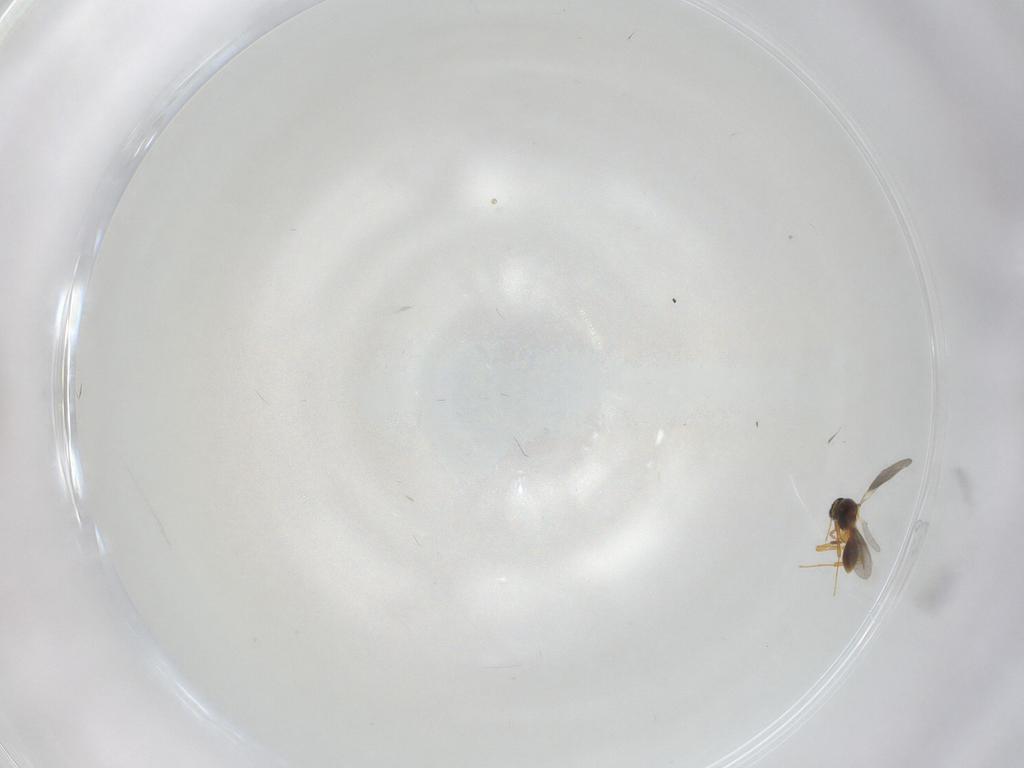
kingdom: Animalia
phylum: Arthropoda
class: Insecta
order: Hymenoptera
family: Platygastridae
